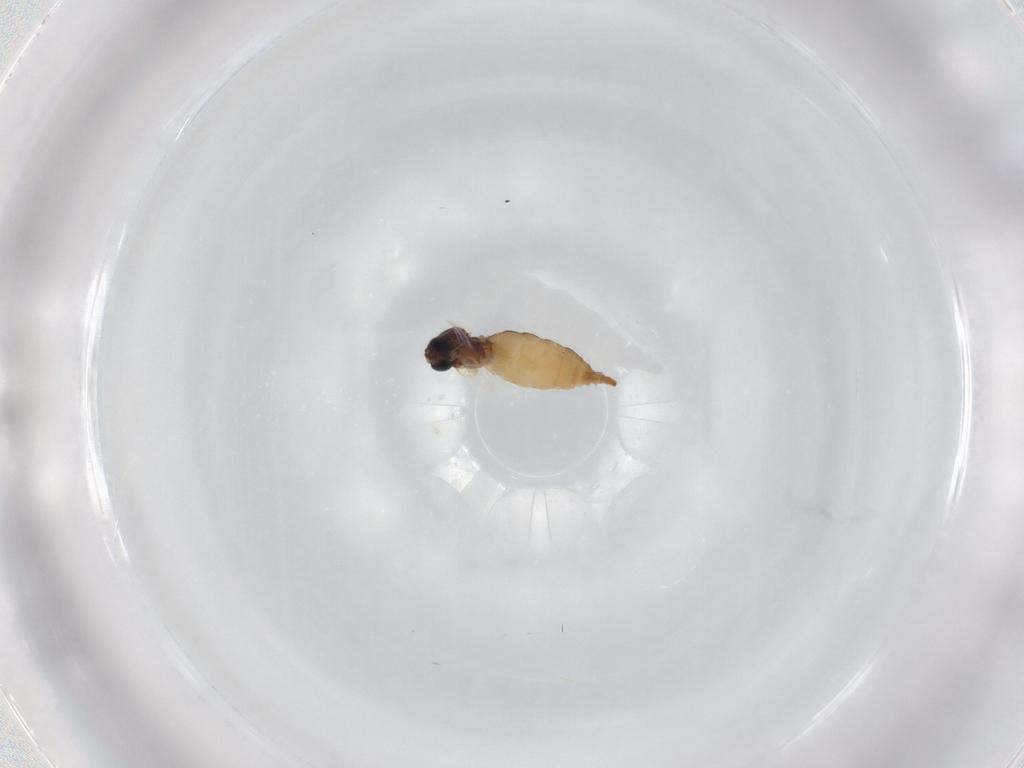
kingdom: Animalia
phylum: Arthropoda
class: Insecta
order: Diptera
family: Sciaridae
